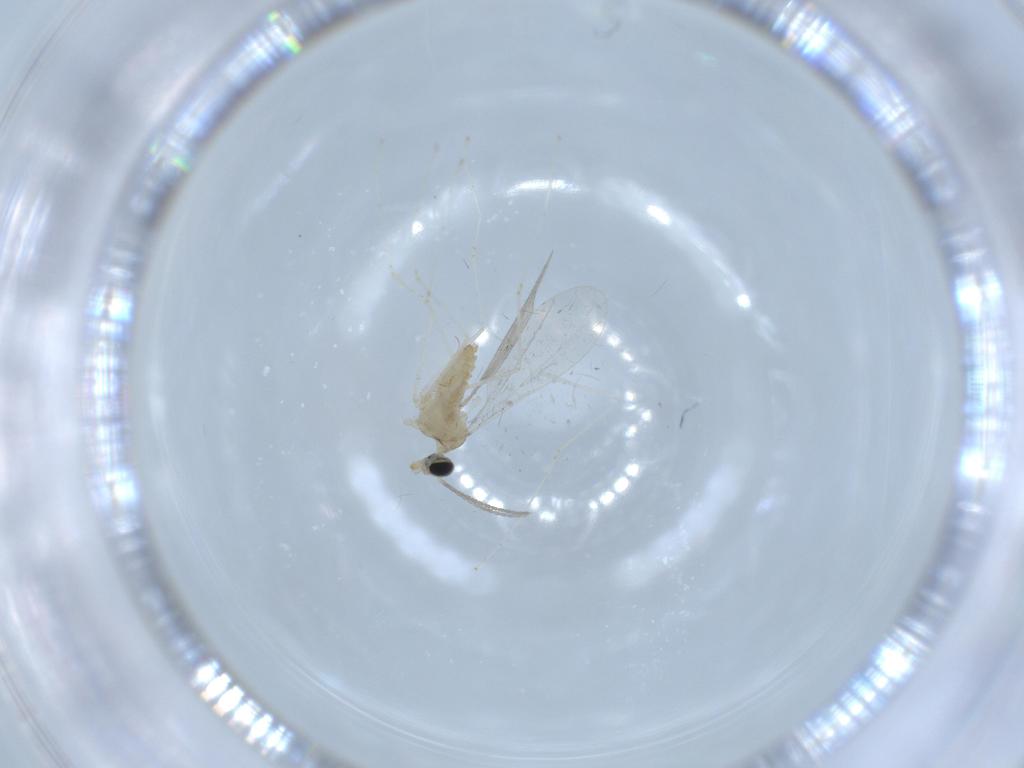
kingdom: Animalia
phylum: Arthropoda
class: Insecta
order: Diptera
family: Cecidomyiidae
